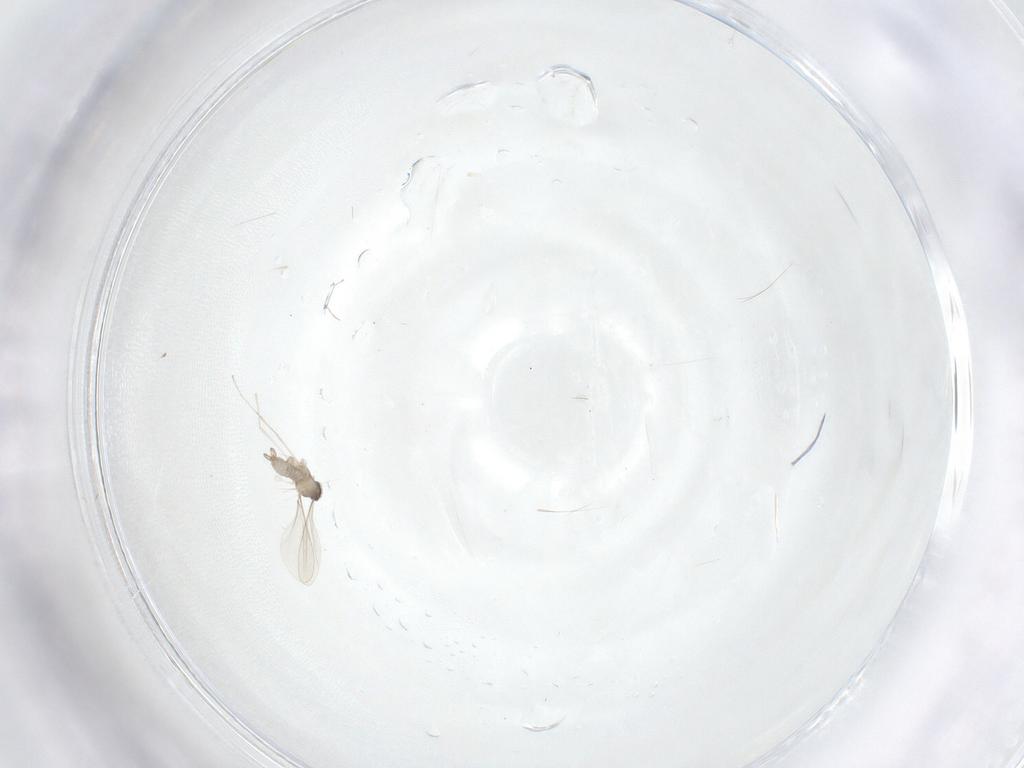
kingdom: Animalia
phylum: Arthropoda
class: Insecta
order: Diptera
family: Cecidomyiidae
